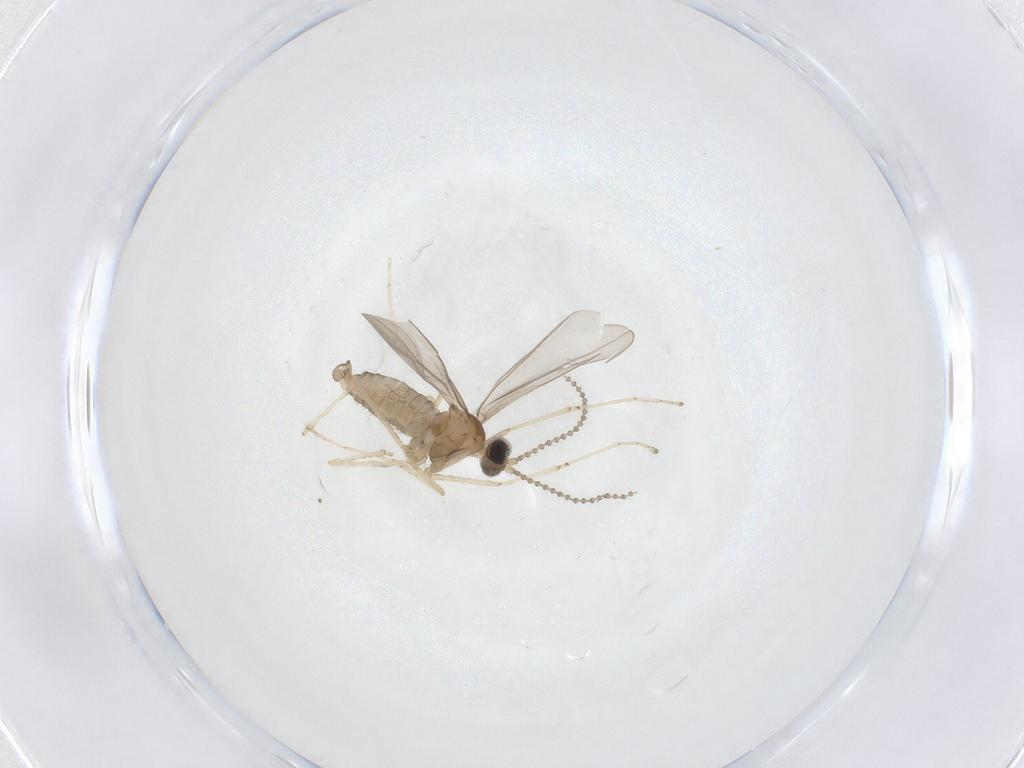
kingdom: Animalia
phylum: Arthropoda
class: Insecta
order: Diptera
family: Cecidomyiidae
